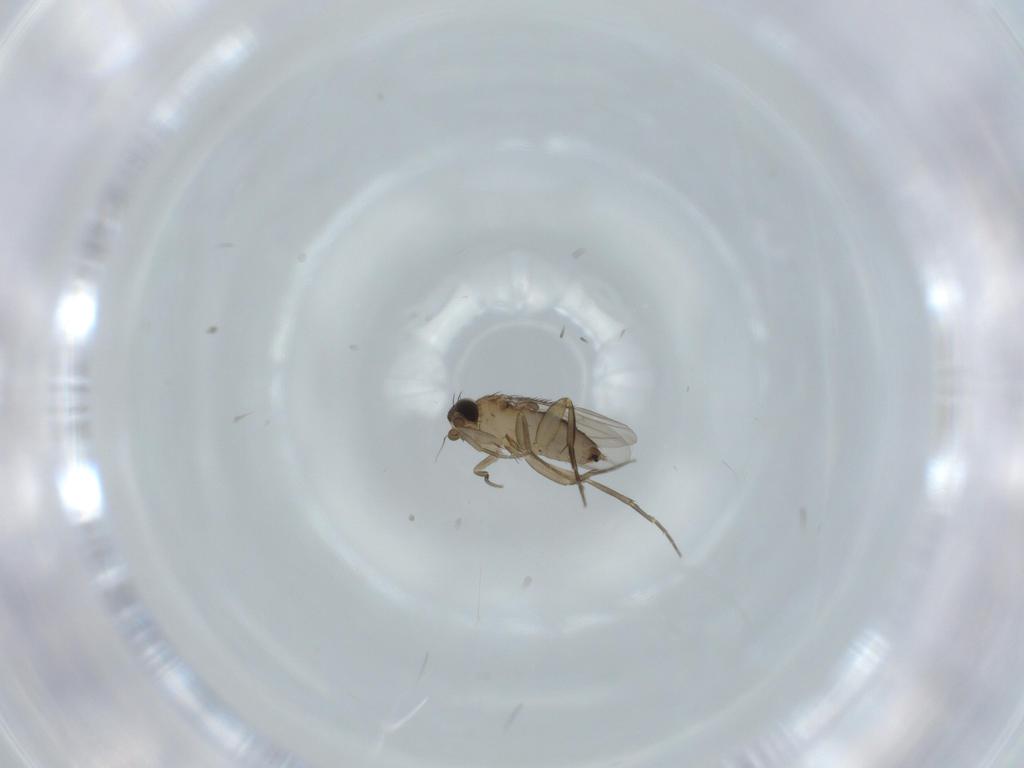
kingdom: Animalia
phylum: Arthropoda
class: Insecta
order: Diptera
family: Phoridae
